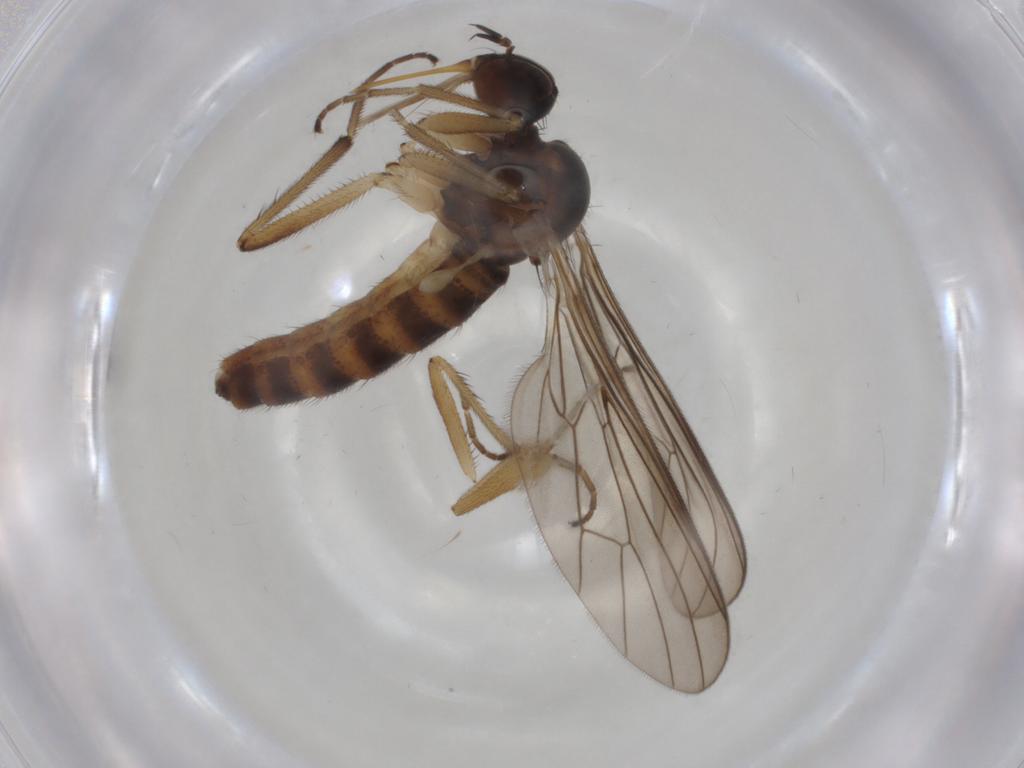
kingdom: Animalia
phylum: Arthropoda
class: Insecta
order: Diptera
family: Empididae
